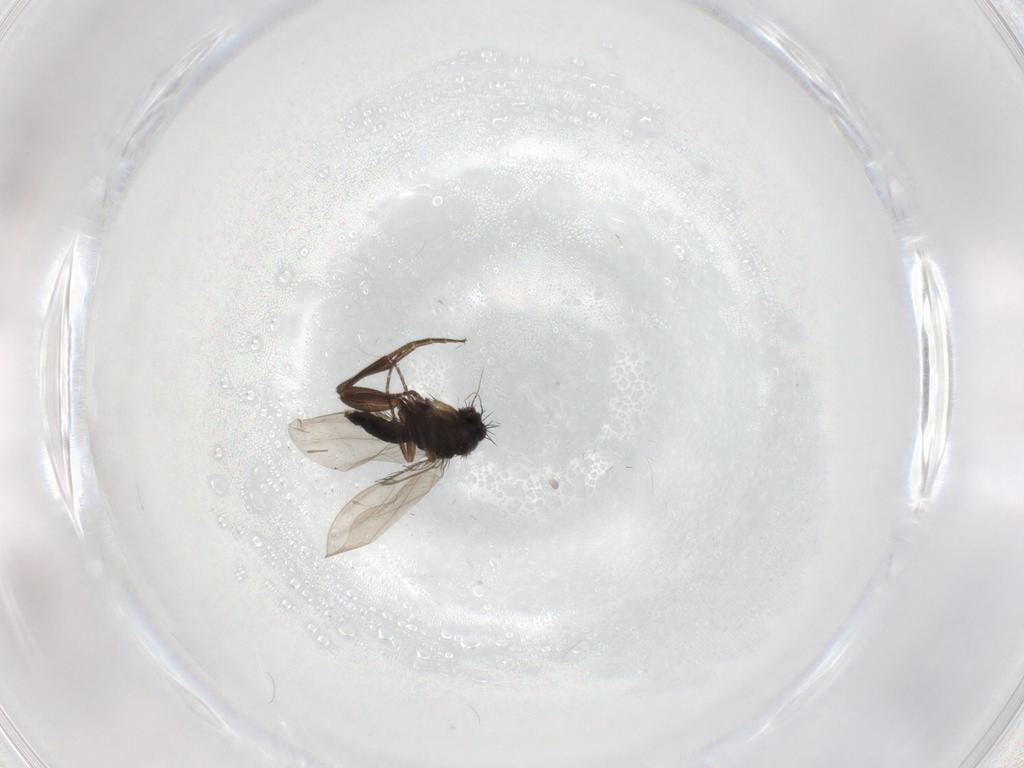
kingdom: Animalia
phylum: Arthropoda
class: Insecta
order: Diptera
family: Phoridae
